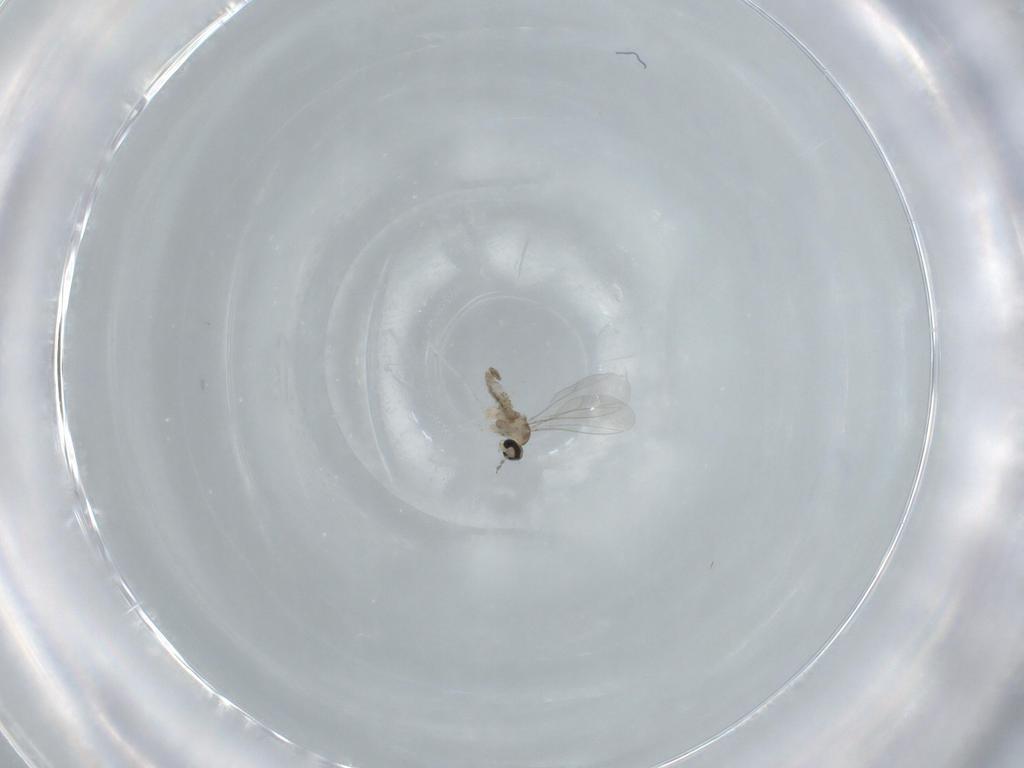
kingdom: Animalia
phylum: Arthropoda
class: Insecta
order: Diptera
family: Cecidomyiidae
